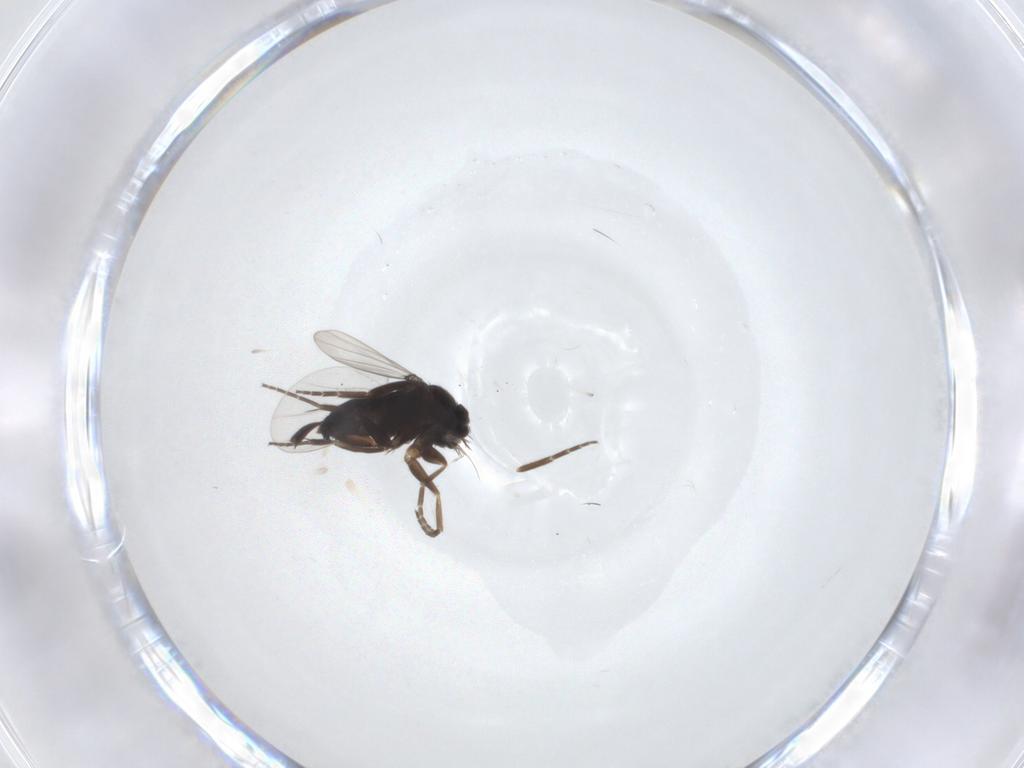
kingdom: Animalia
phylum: Arthropoda
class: Insecta
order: Diptera
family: Phoridae
